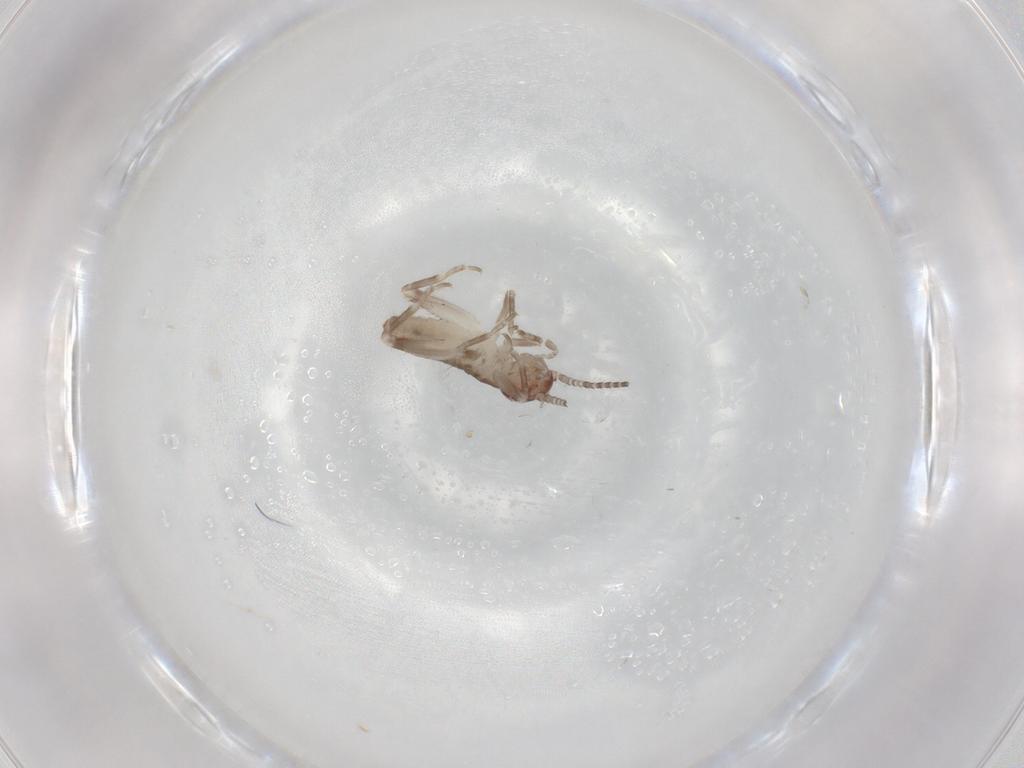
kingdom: Animalia
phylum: Arthropoda
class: Insecta
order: Orthoptera
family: Mogoplistidae
